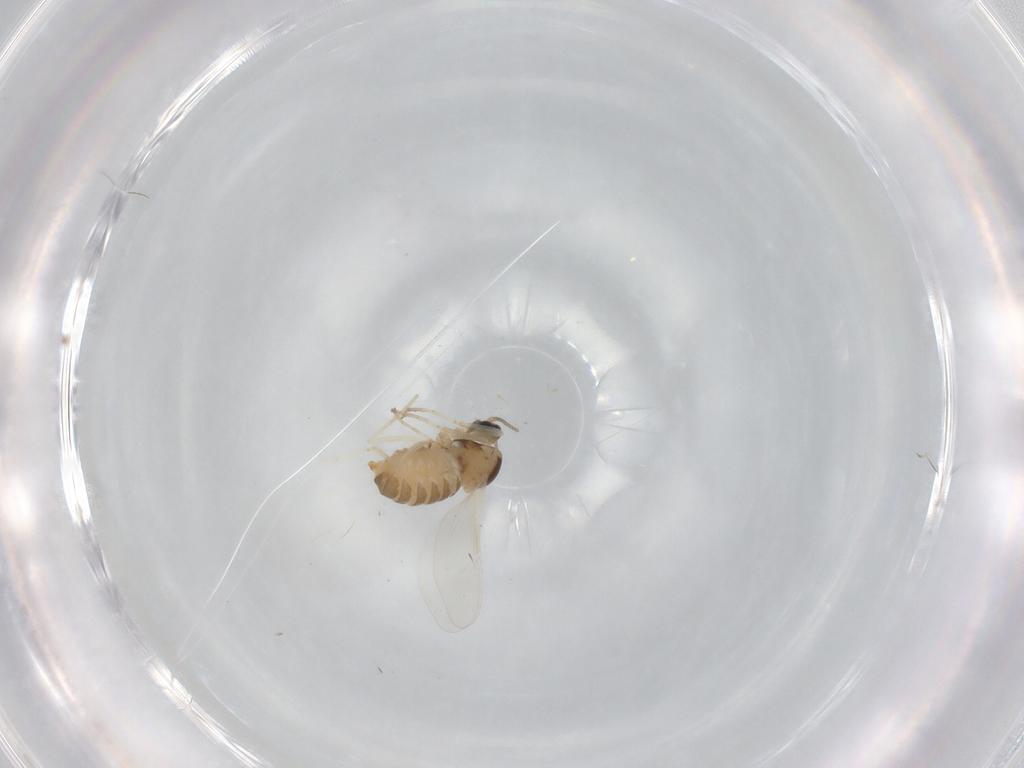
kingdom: Animalia
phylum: Arthropoda
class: Insecta
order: Diptera
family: Cecidomyiidae
